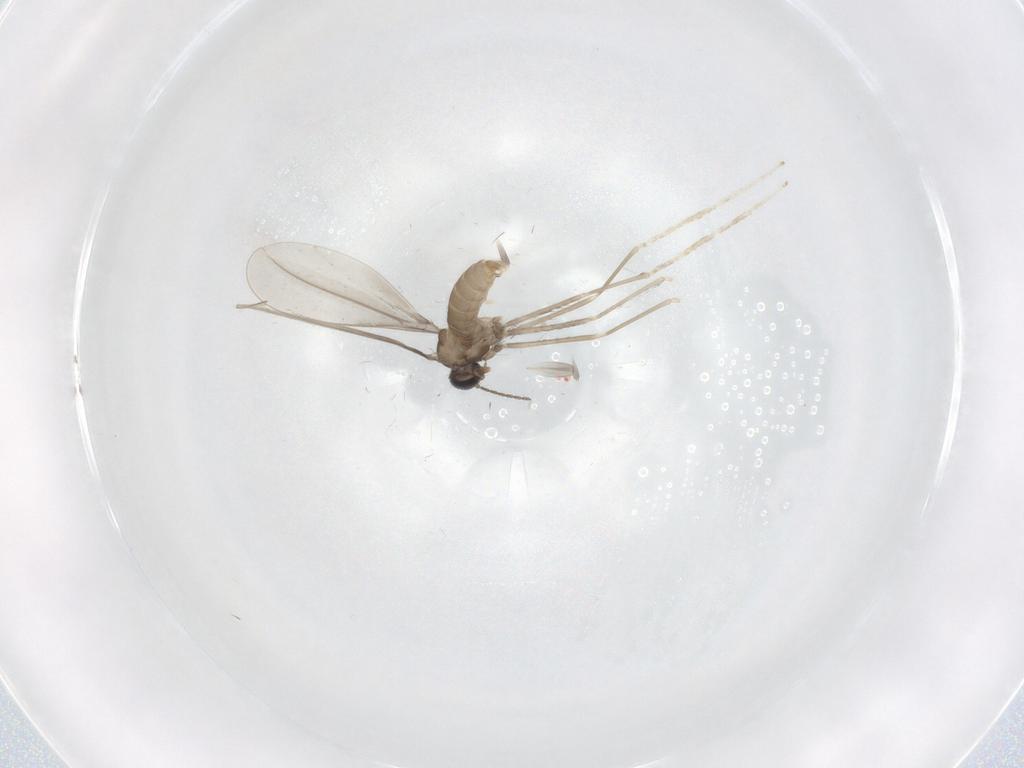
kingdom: Animalia
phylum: Arthropoda
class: Insecta
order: Diptera
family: Cecidomyiidae
